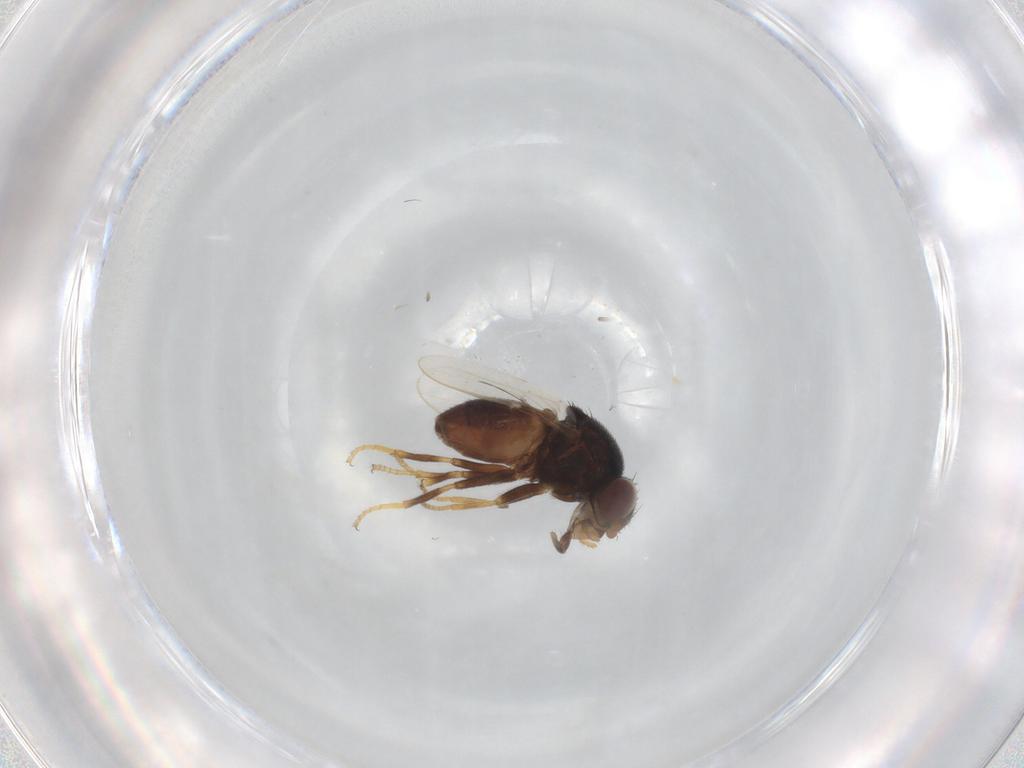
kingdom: Animalia
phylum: Arthropoda
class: Insecta
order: Diptera
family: Chloropidae
